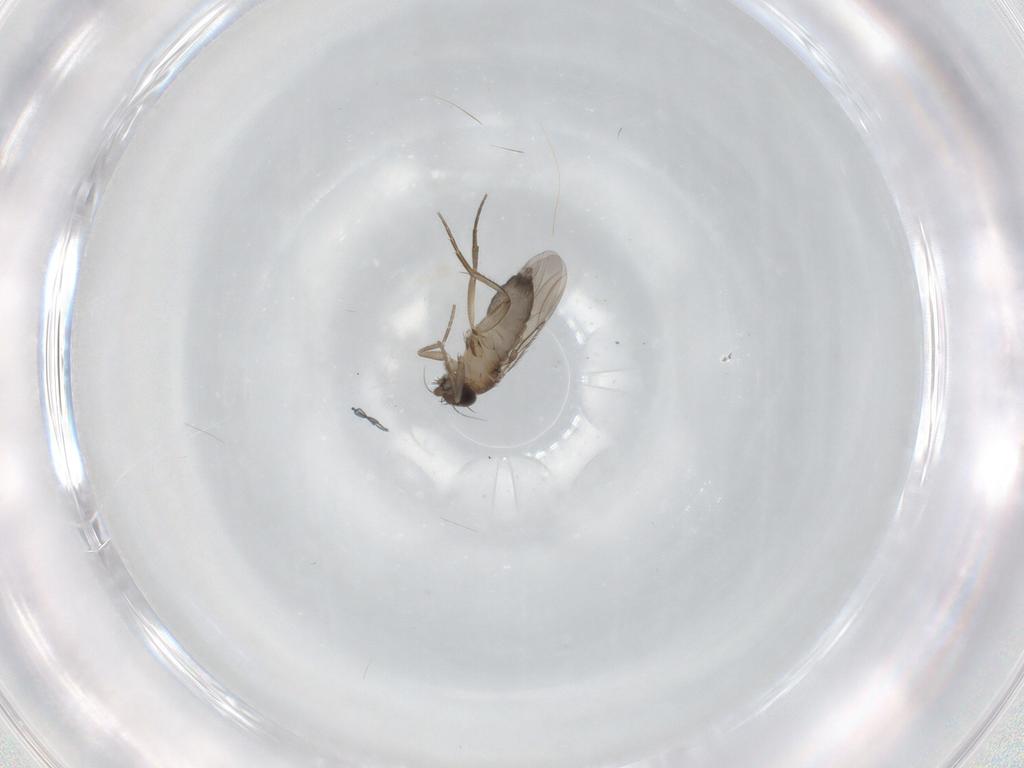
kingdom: Animalia
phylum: Arthropoda
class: Insecta
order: Diptera
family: Phoridae
